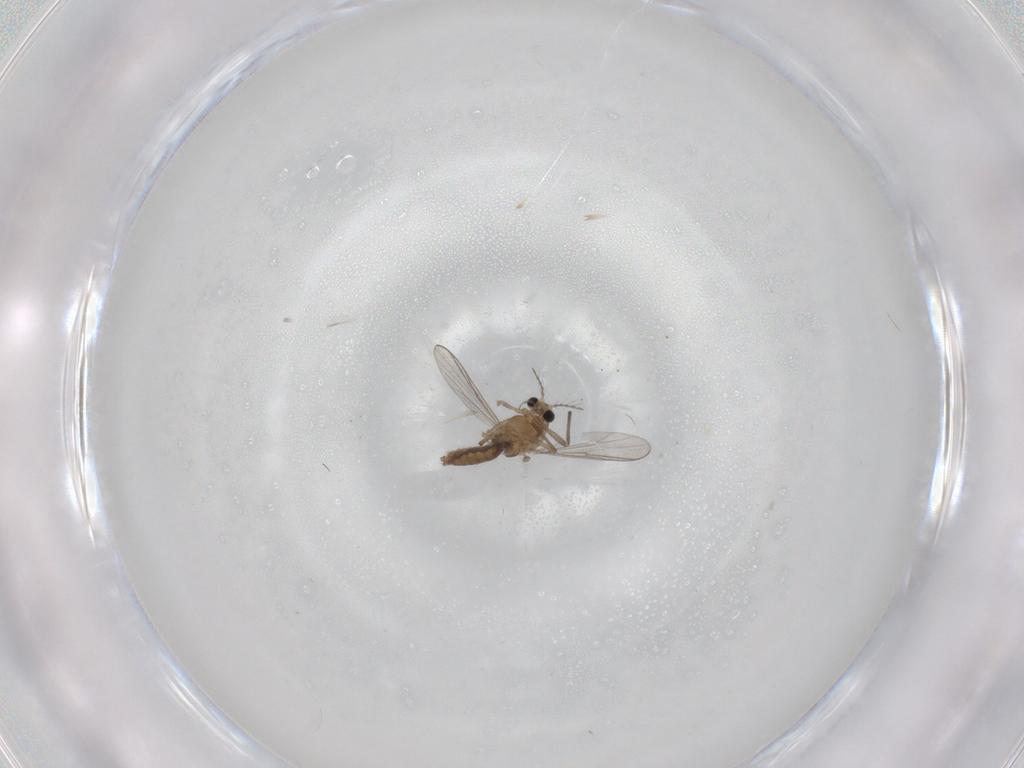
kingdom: Animalia
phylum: Arthropoda
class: Insecta
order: Diptera
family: Chironomidae
